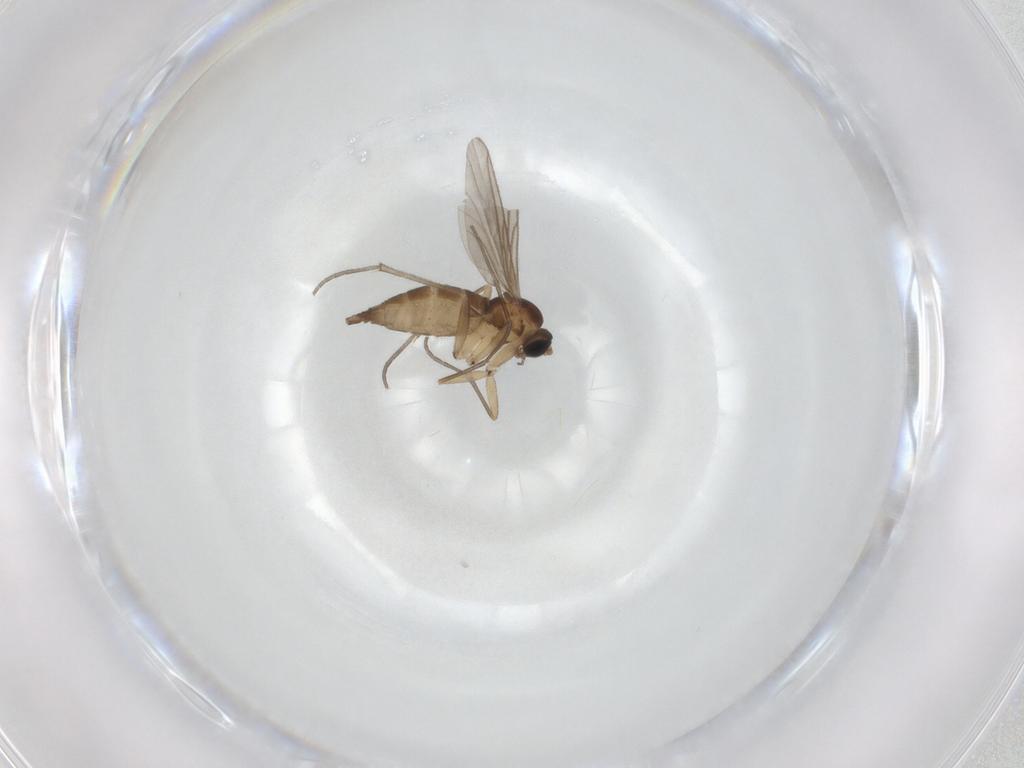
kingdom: Animalia
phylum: Arthropoda
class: Insecta
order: Diptera
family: Sciaridae
